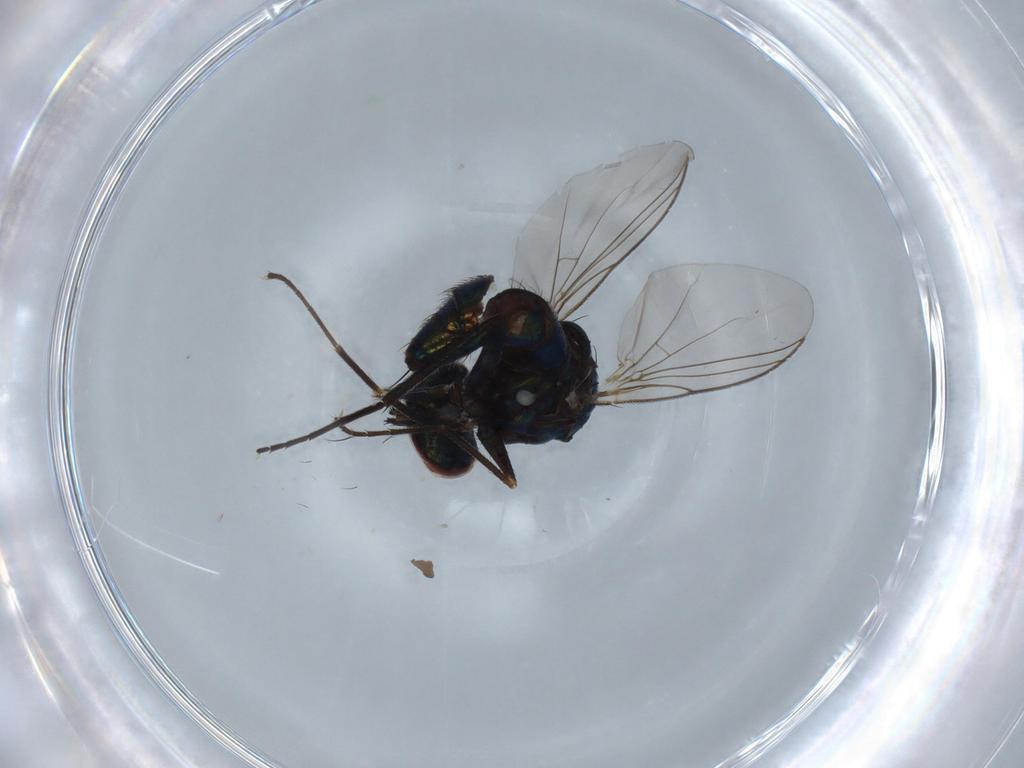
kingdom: Animalia
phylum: Arthropoda
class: Insecta
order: Diptera
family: Dolichopodidae
